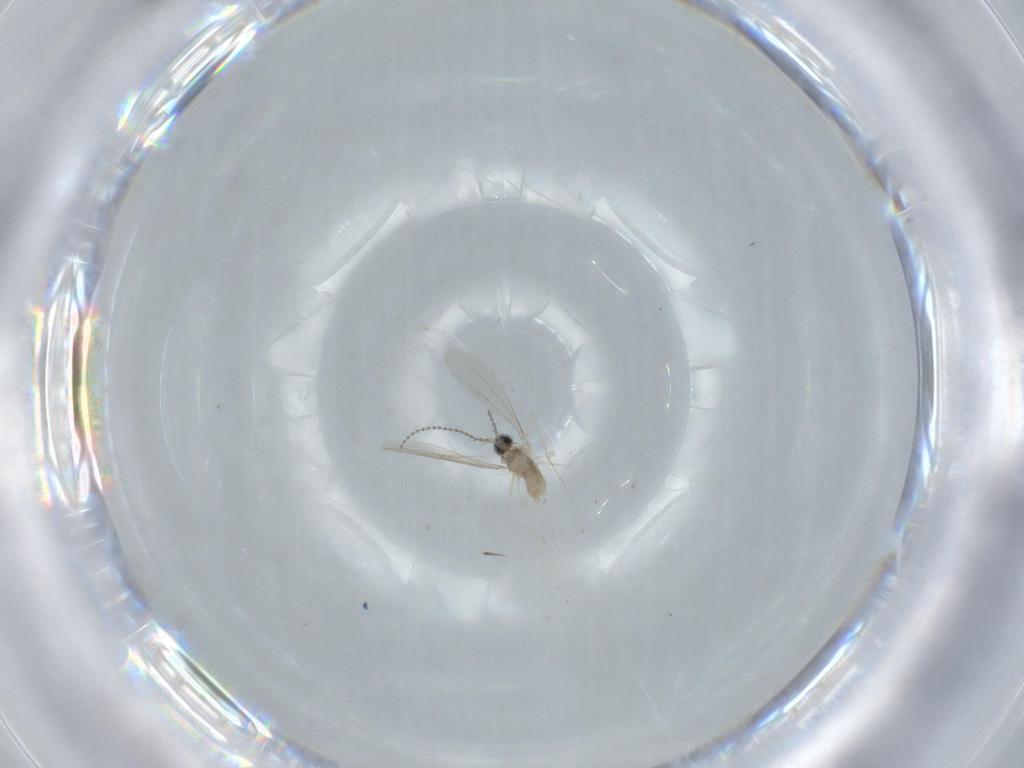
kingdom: Animalia
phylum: Arthropoda
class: Insecta
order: Diptera
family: Cecidomyiidae
